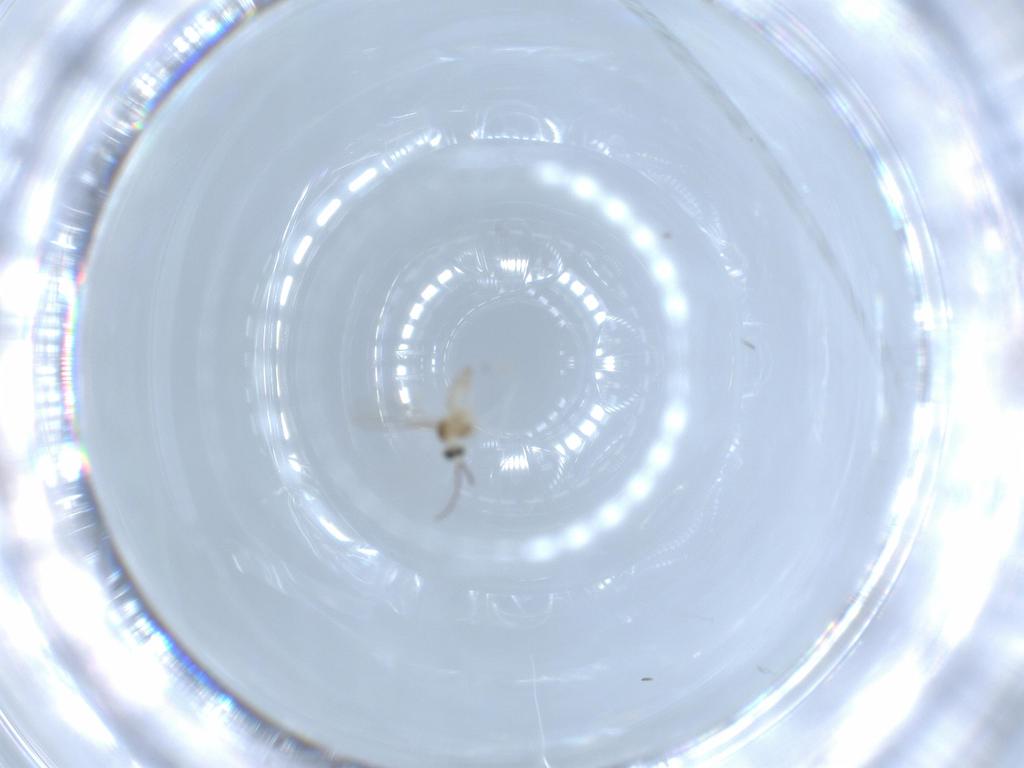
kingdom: Animalia
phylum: Arthropoda
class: Insecta
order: Diptera
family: Cecidomyiidae
